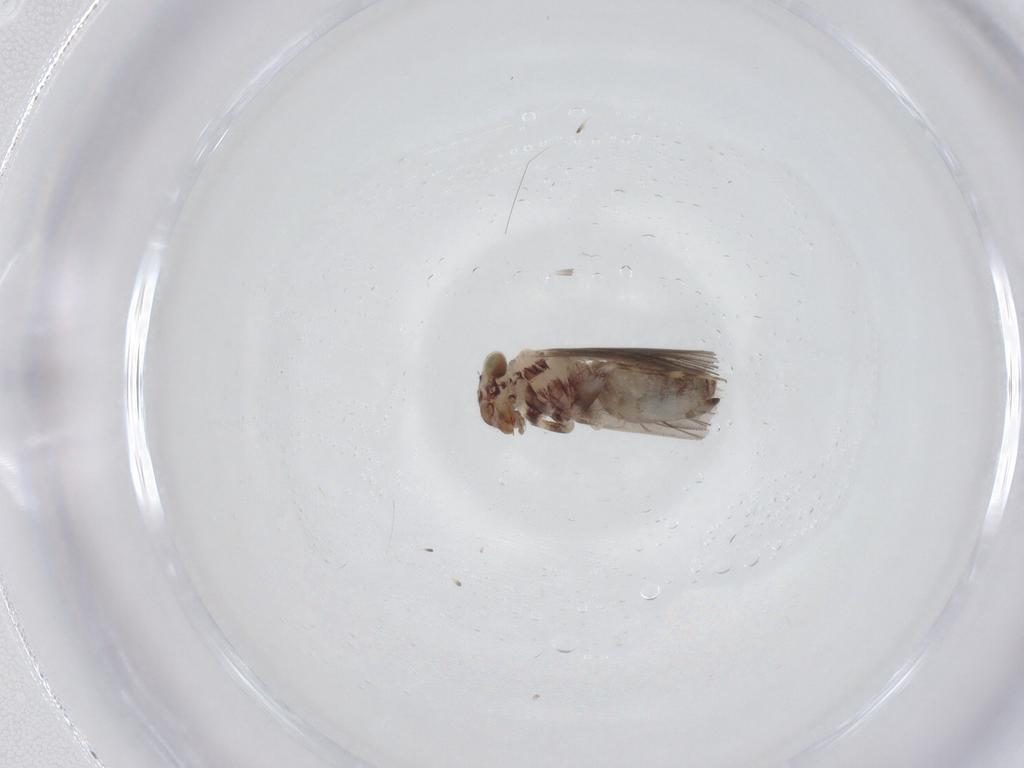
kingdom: Animalia
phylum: Arthropoda
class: Insecta
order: Psocodea
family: Lepidopsocidae
